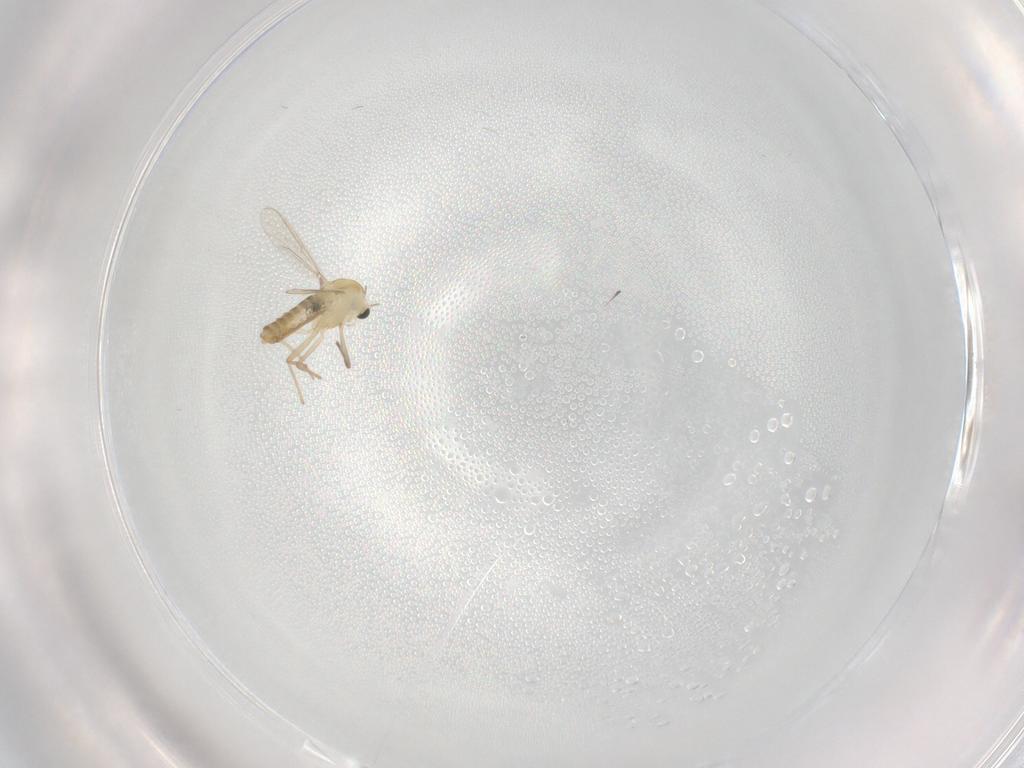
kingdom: Animalia
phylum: Arthropoda
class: Insecta
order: Diptera
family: Chironomidae
